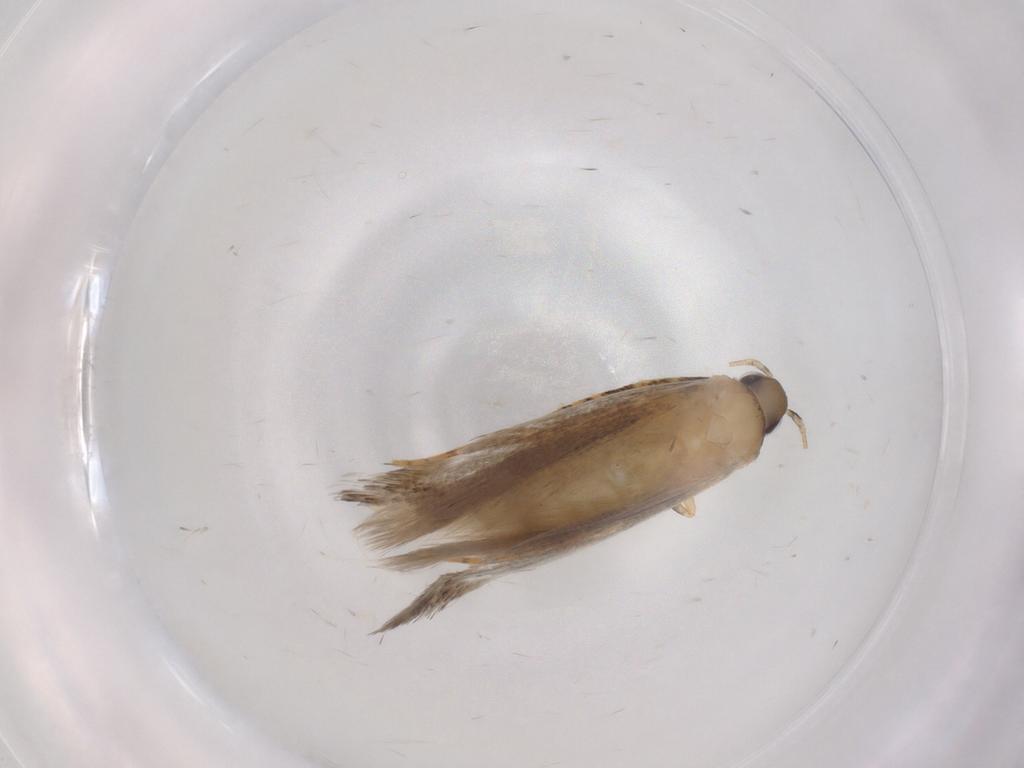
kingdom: Animalia
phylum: Arthropoda
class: Insecta
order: Lepidoptera
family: Autostichidae
